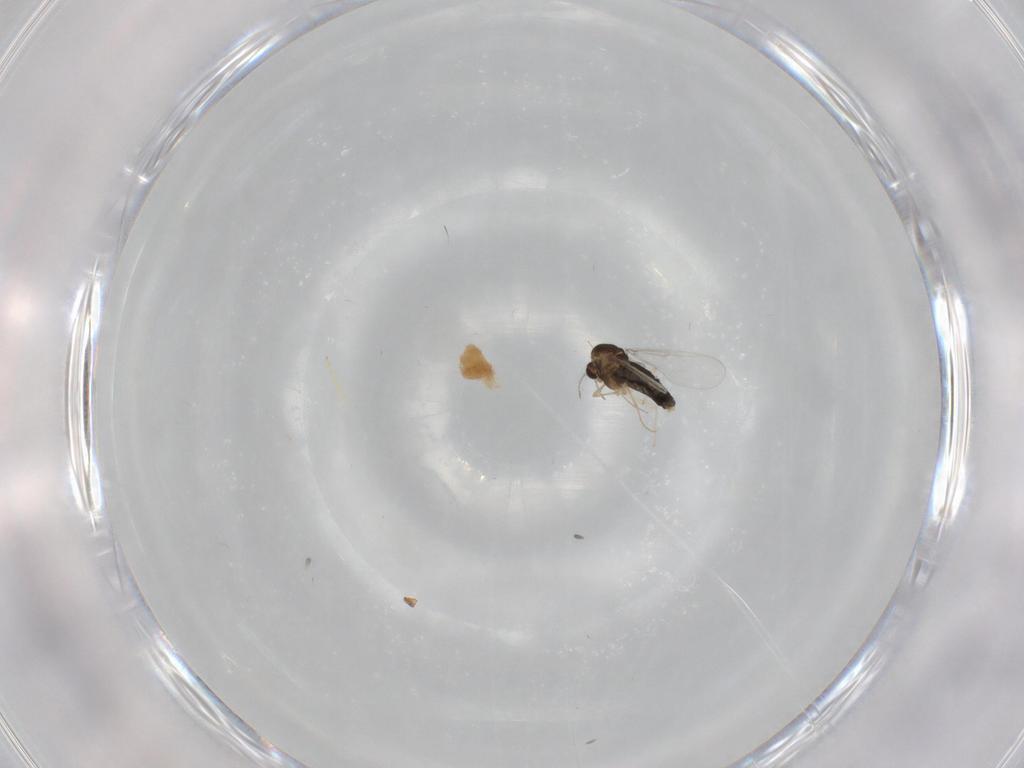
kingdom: Animalia
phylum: Arthropoda
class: Insecta
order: Diptera
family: Chironomidae
